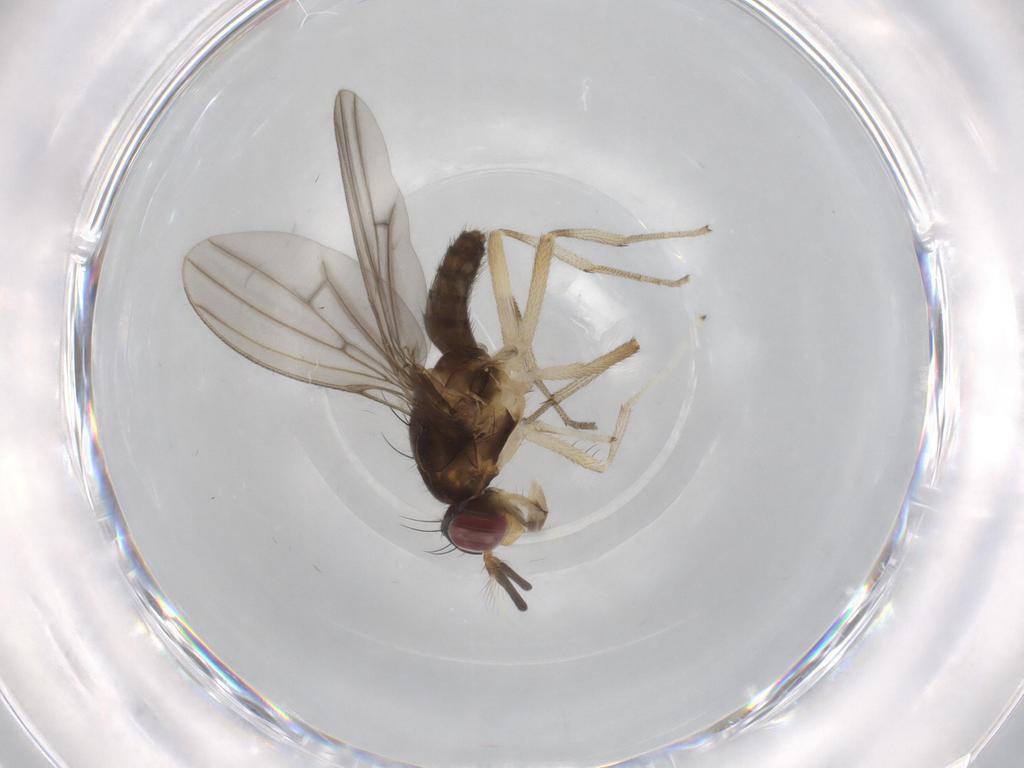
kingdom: Animalia
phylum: Arthropoda
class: Insecta
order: Diptera
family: Lauxaniidae
